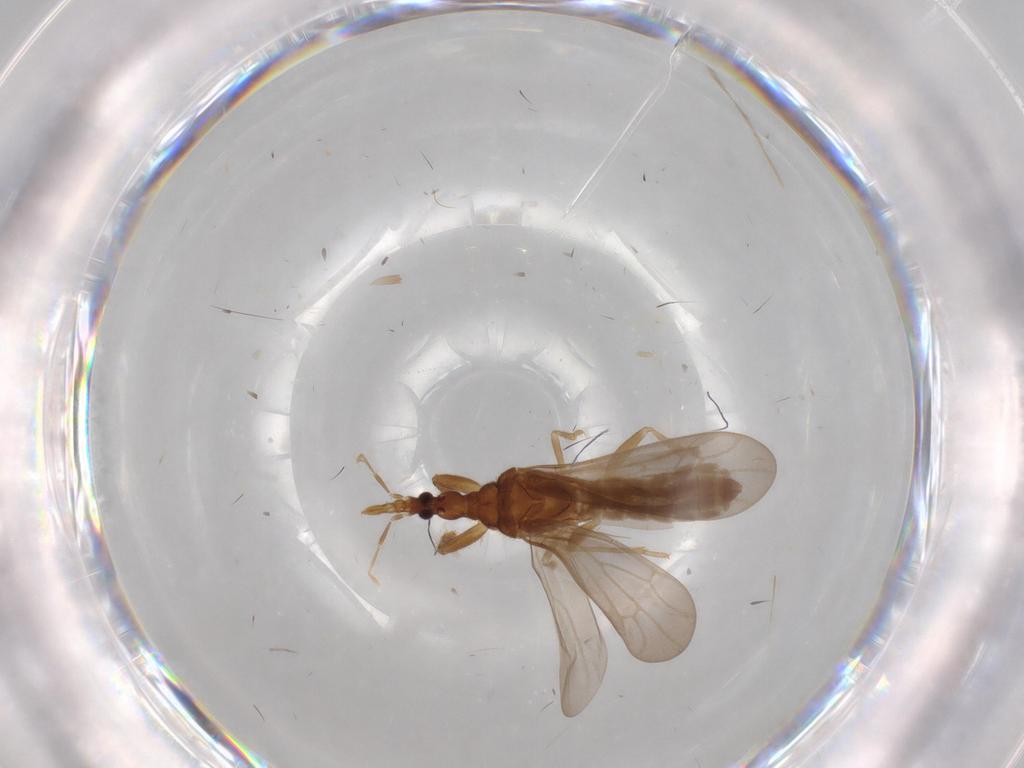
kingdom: Animalia
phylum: Arthropoda
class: Insecta
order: Hemiptera
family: Enicocephalidae
